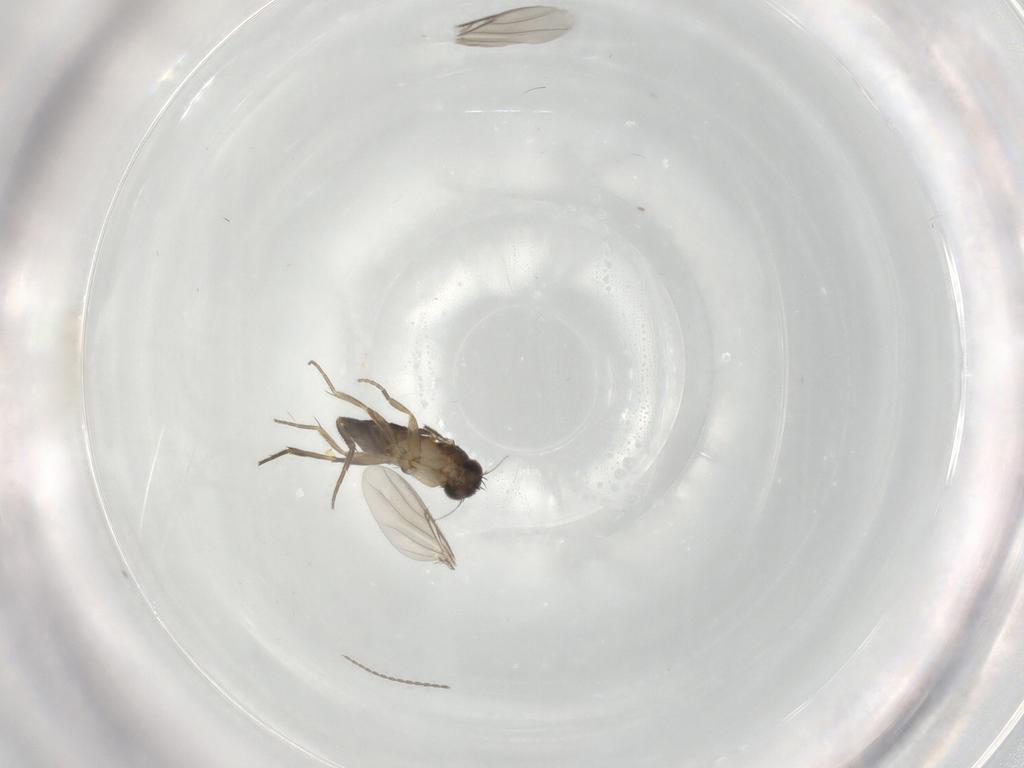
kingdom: Animalia
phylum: Arthropoda
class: Insecta
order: Diptera
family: Phoridae
